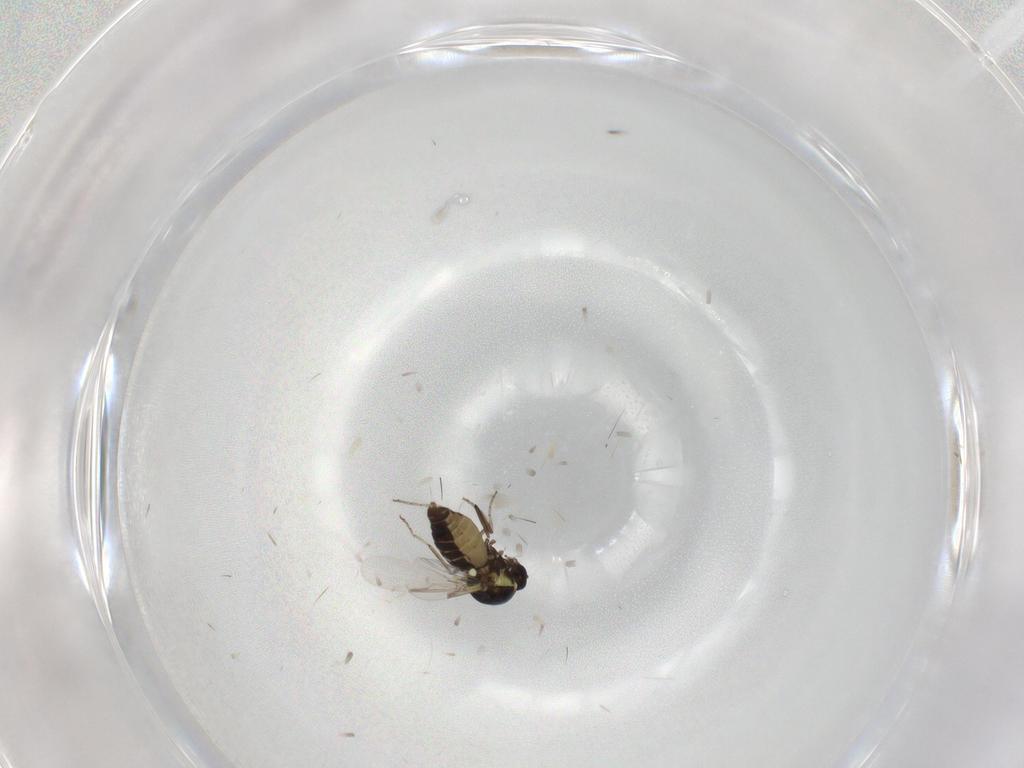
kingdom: Animalia
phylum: Arthropoda
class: Insecta
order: Diptera
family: Ceratopogonidae
